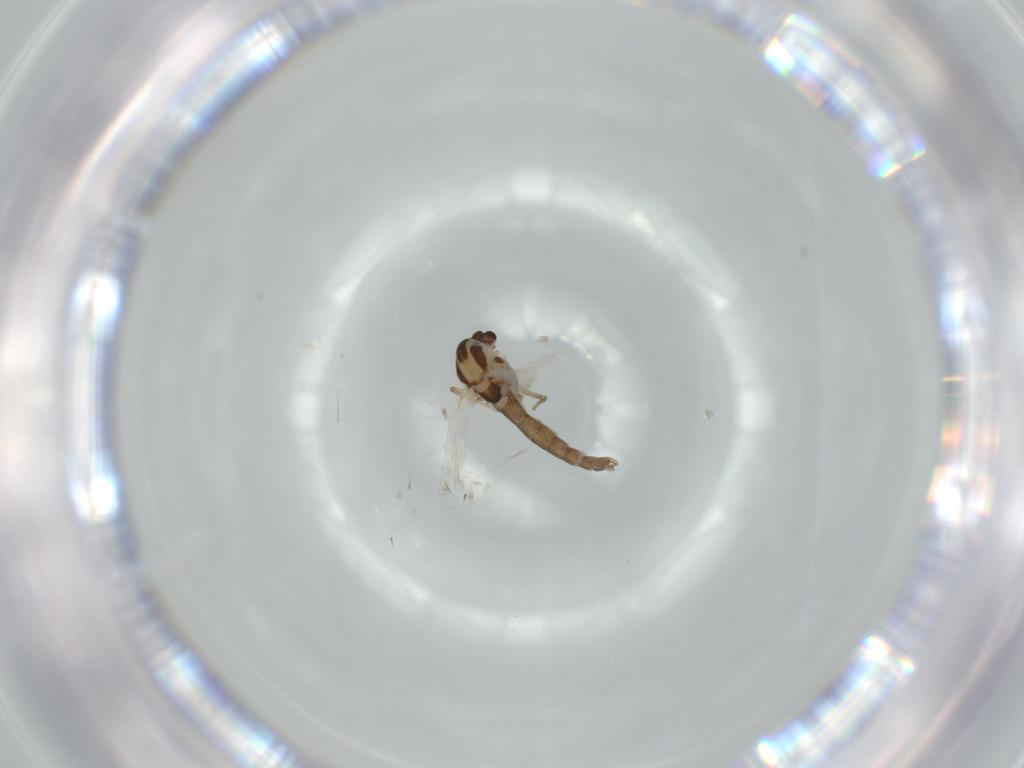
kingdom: Animalia
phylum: Arthropoda
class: Insecta
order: Diptera
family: Chironomidae
